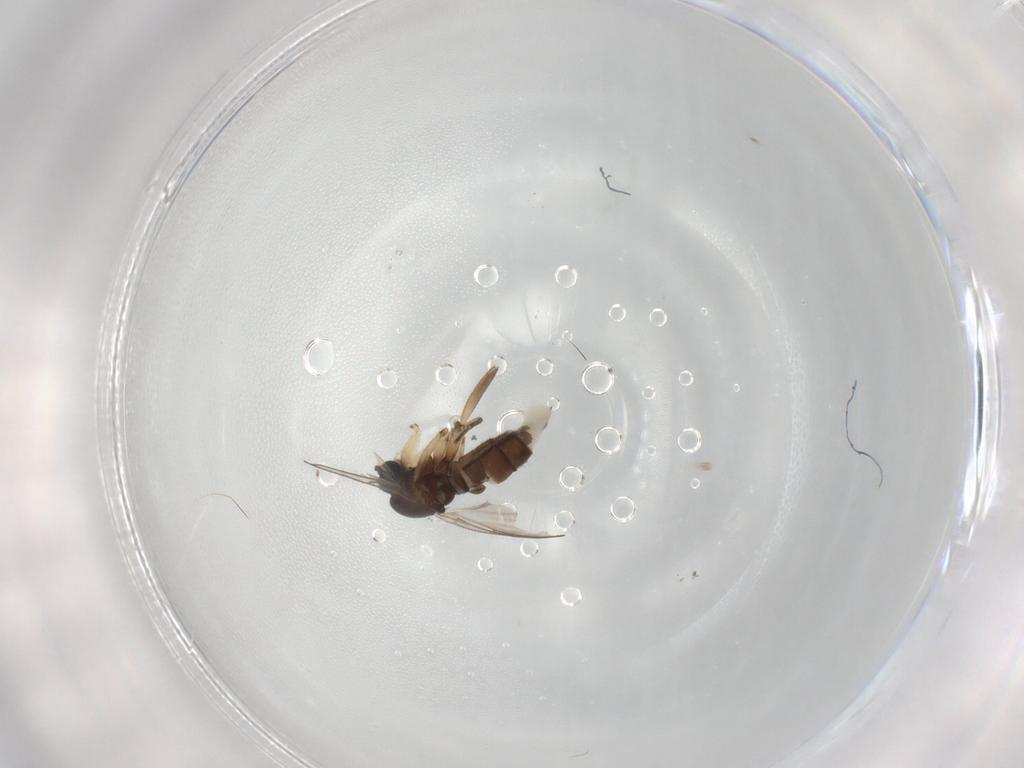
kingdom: Animalia
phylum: Arthropoda
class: Insecta
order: Diptera
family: Sciaridae
